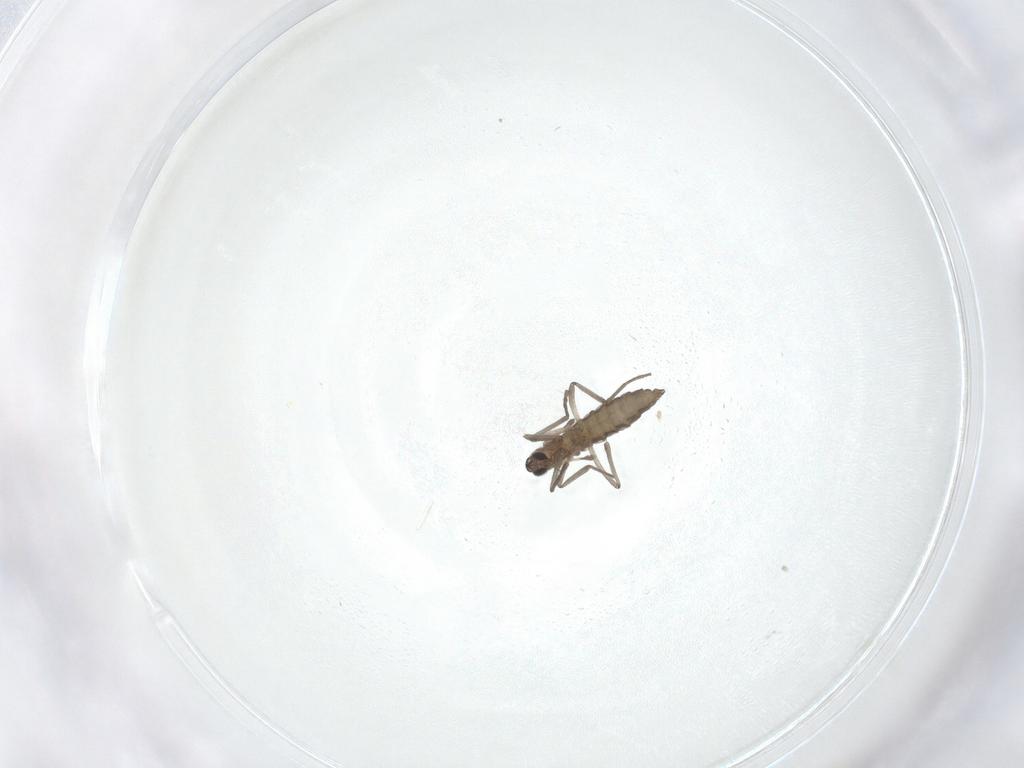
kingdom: Animalia
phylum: Arthropoda
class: Insecta
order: Diptera
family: Cecidomyiidae
